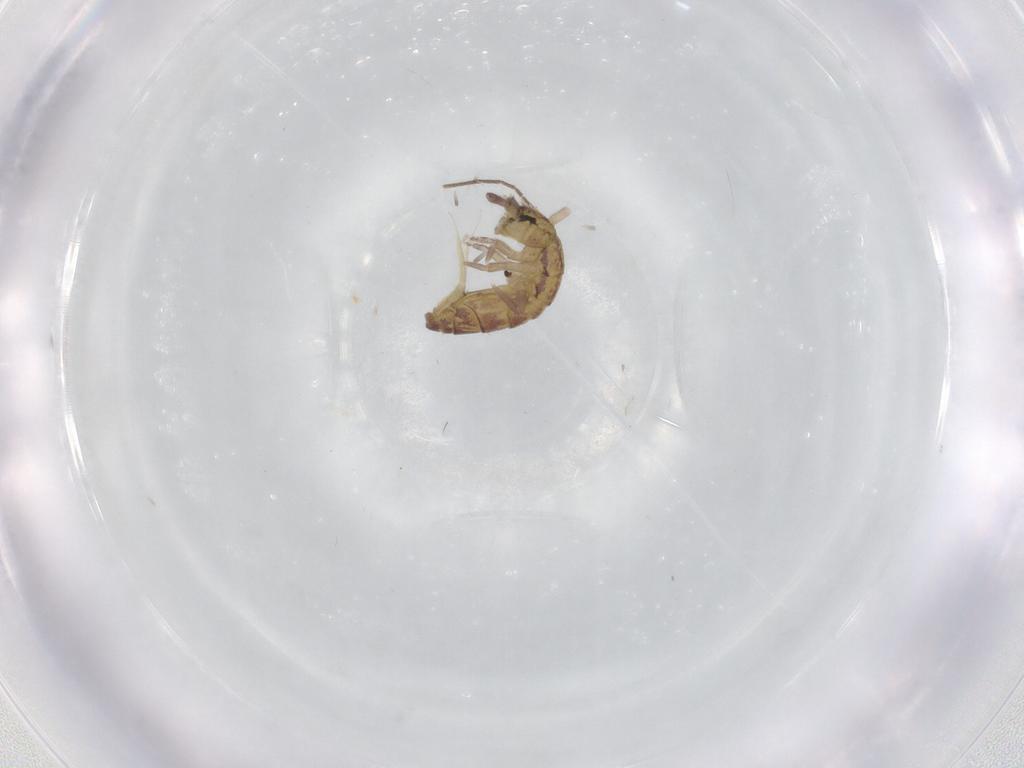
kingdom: Animalia
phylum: Arthropoda
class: Collembola
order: Entomobryomorpha
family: Isotomidae
